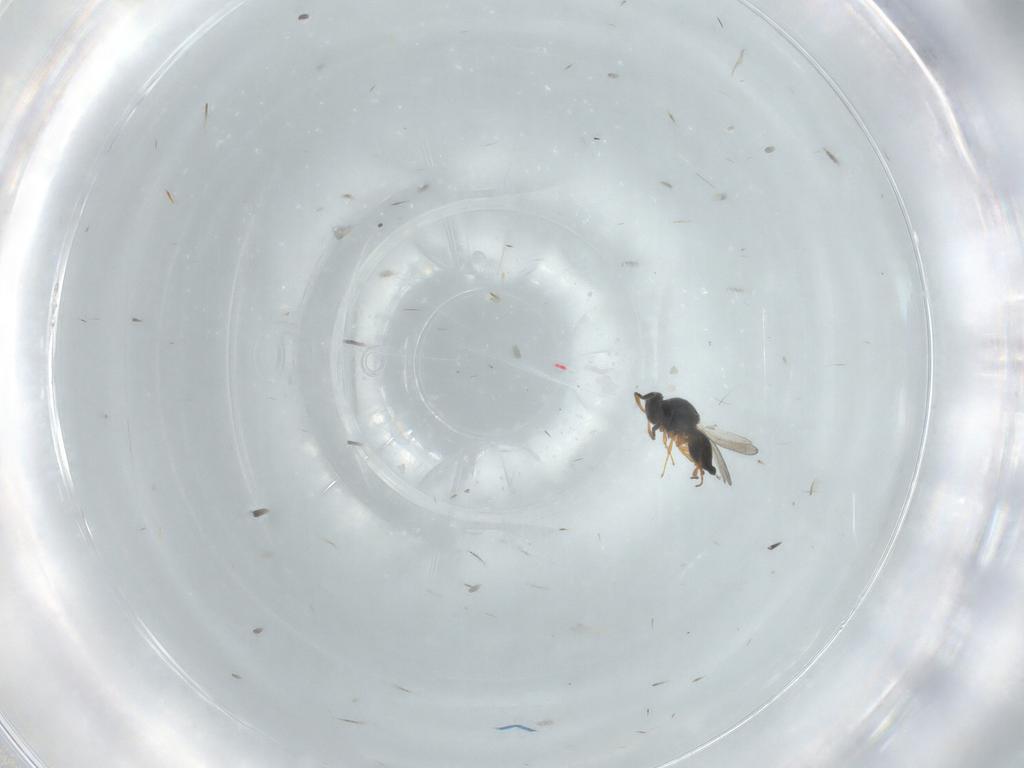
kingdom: Animalia
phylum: Arthropoda
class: Insecta
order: Hymenoptera
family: Platygastridae
